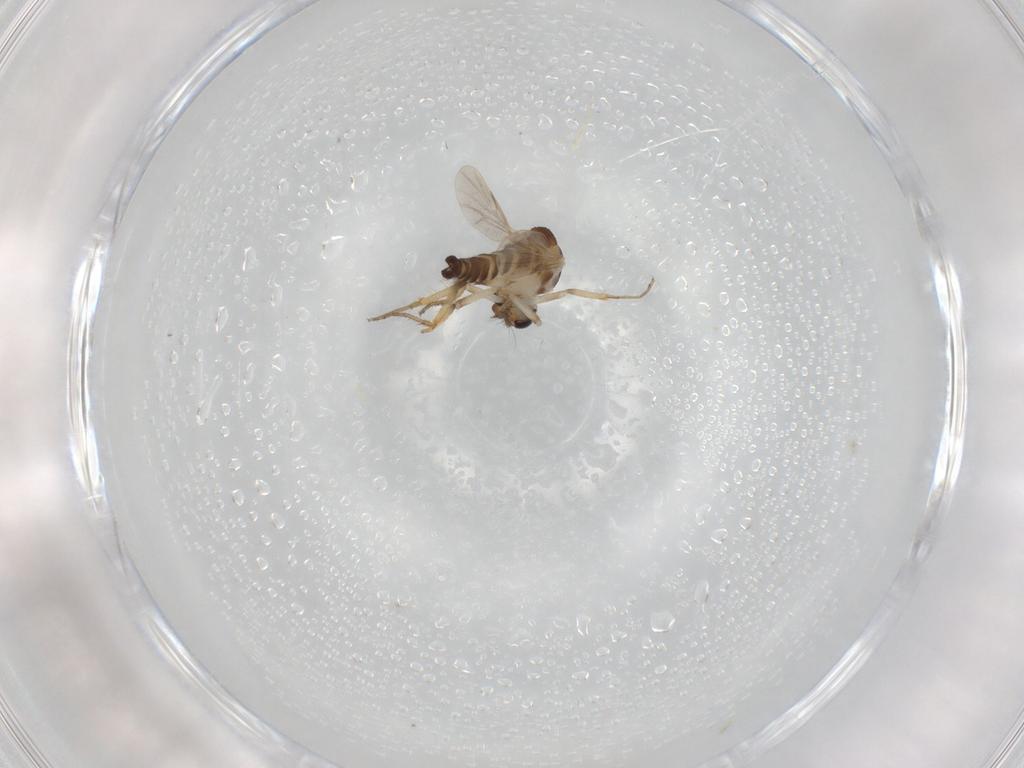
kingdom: Animalia
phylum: Arthropoda
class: Insecta
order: Diptera
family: Ceratopogonidae
